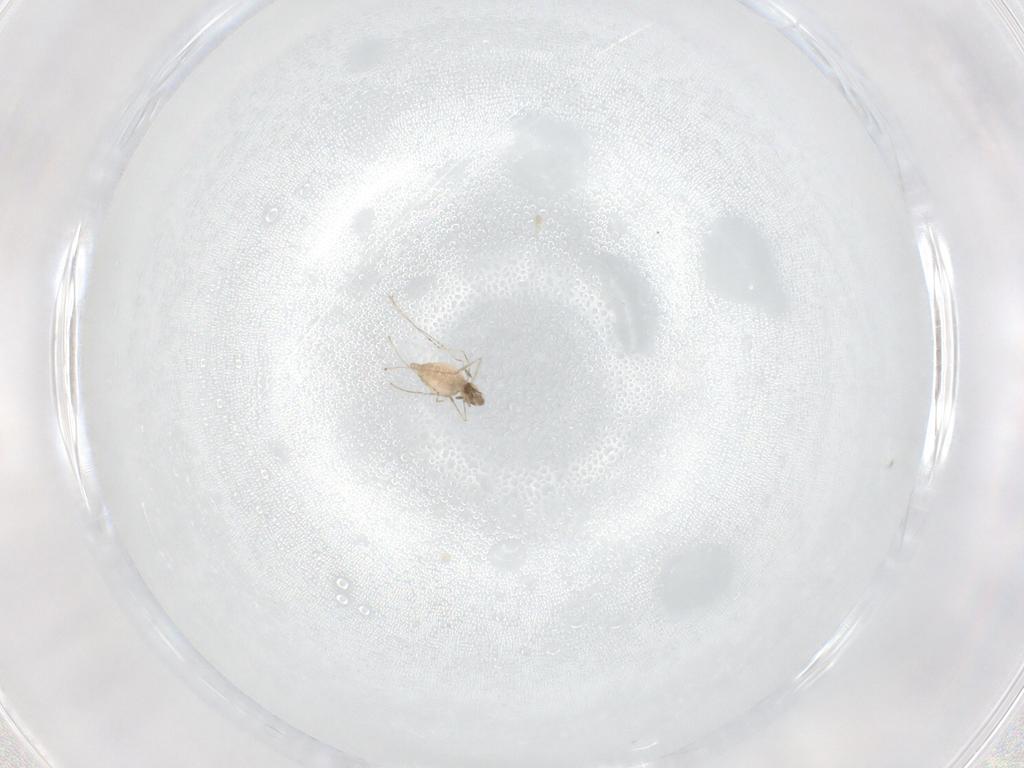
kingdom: Animalia
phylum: Arthropoda
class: Insecta
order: Diptera
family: Cecidomyiidae
